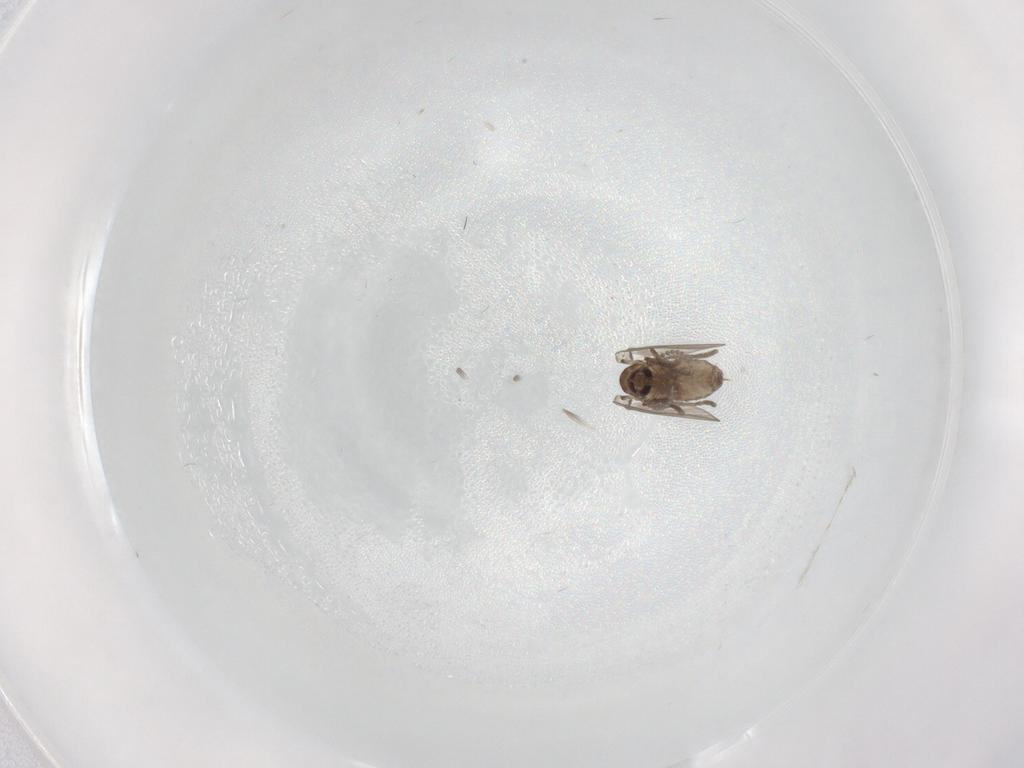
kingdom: Animalia
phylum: Arthropoda
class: Insecta
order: Diptera
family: Psychodidae
